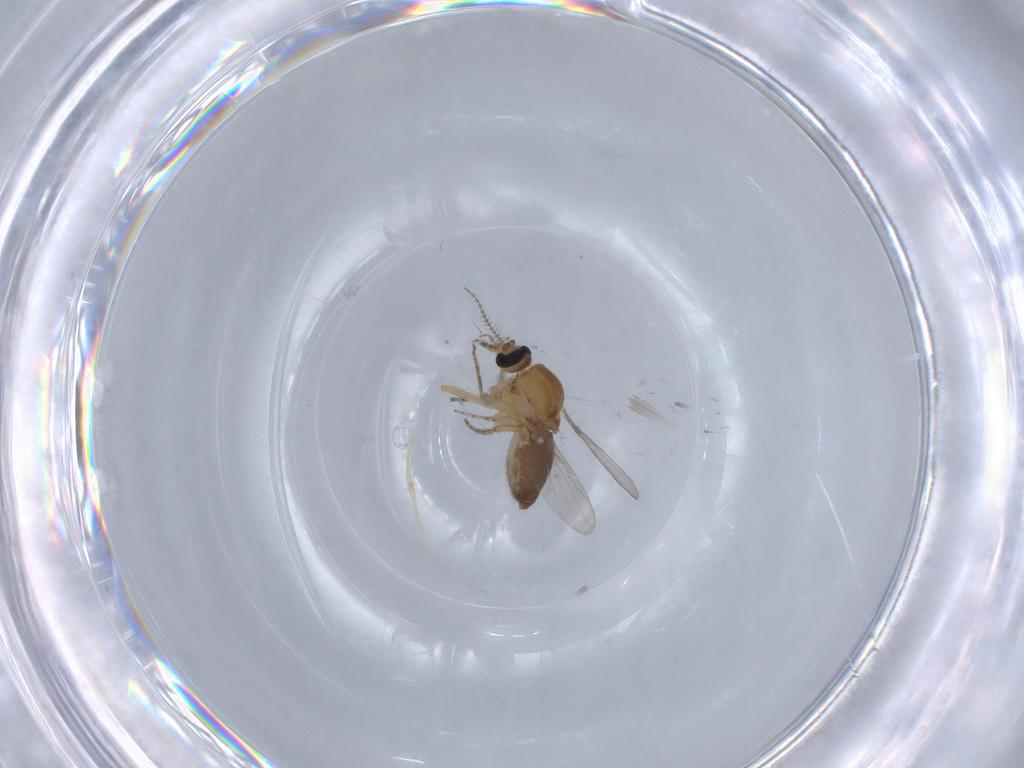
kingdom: Animalia
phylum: Arthropoda
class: Insecta
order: Diptera
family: Ceratopogonidae
